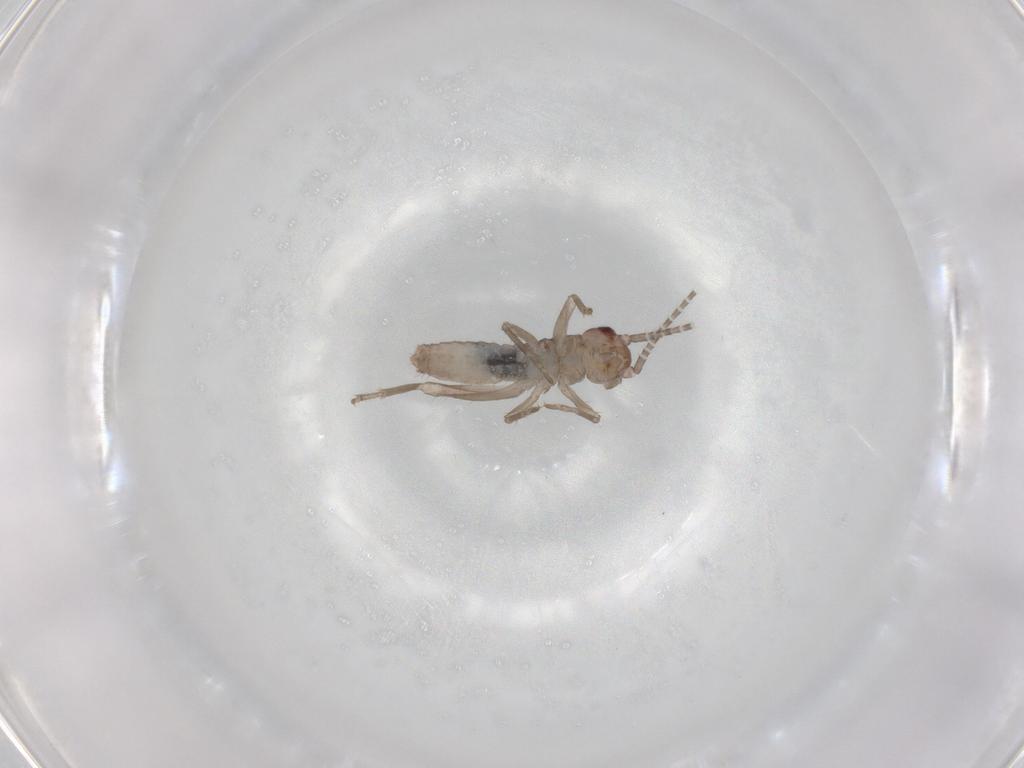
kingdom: Animalia
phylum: Arthropoda
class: Insecta
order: Orthoptera
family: Mogoplistidae
